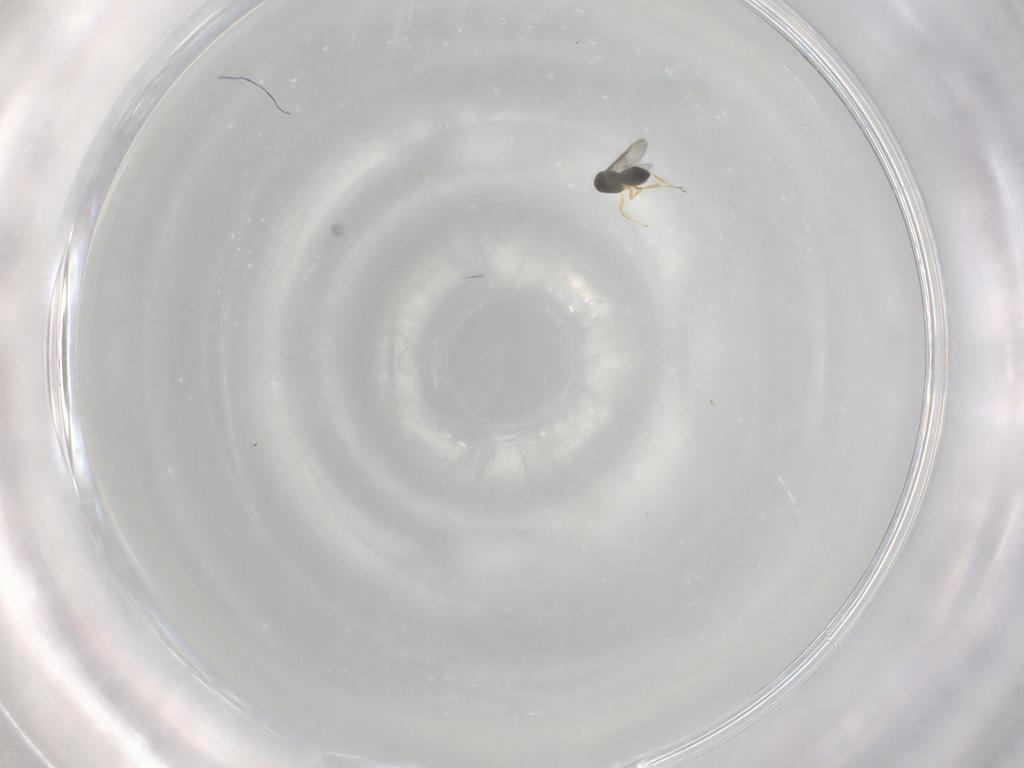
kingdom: Animalia
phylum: Arthropoda
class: Insecta
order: Hymenoptera
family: Scelionidae
